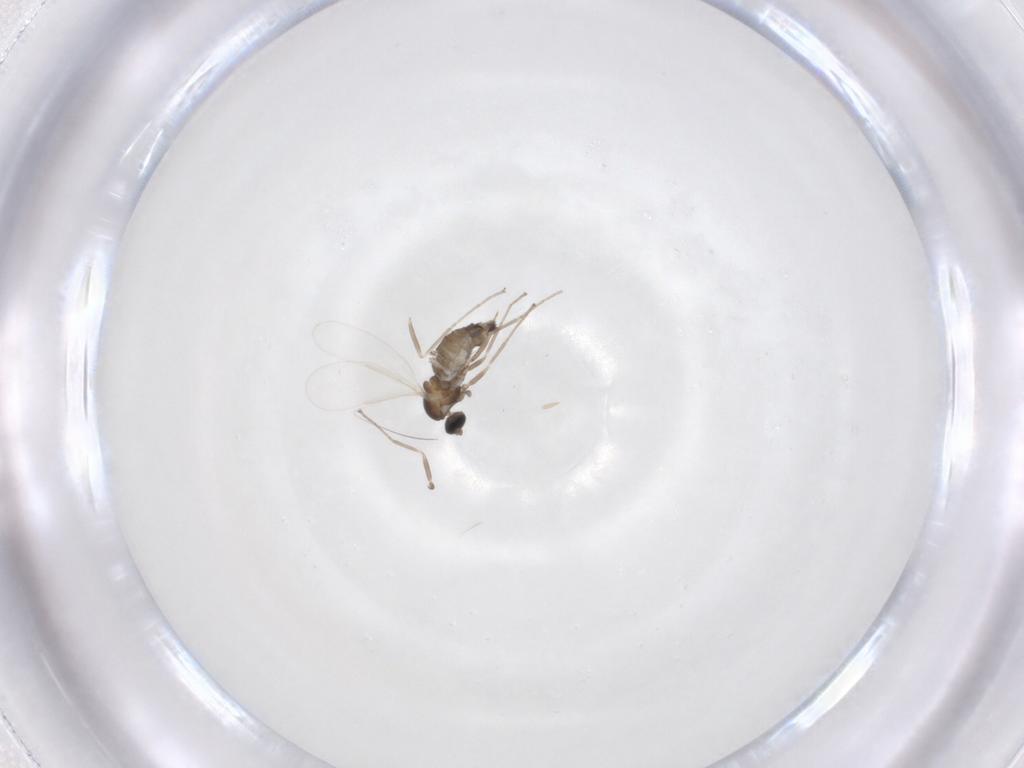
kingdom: Animalia
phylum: Arthropoda
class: Insecta
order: Diptera
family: Cecidomyiidae
